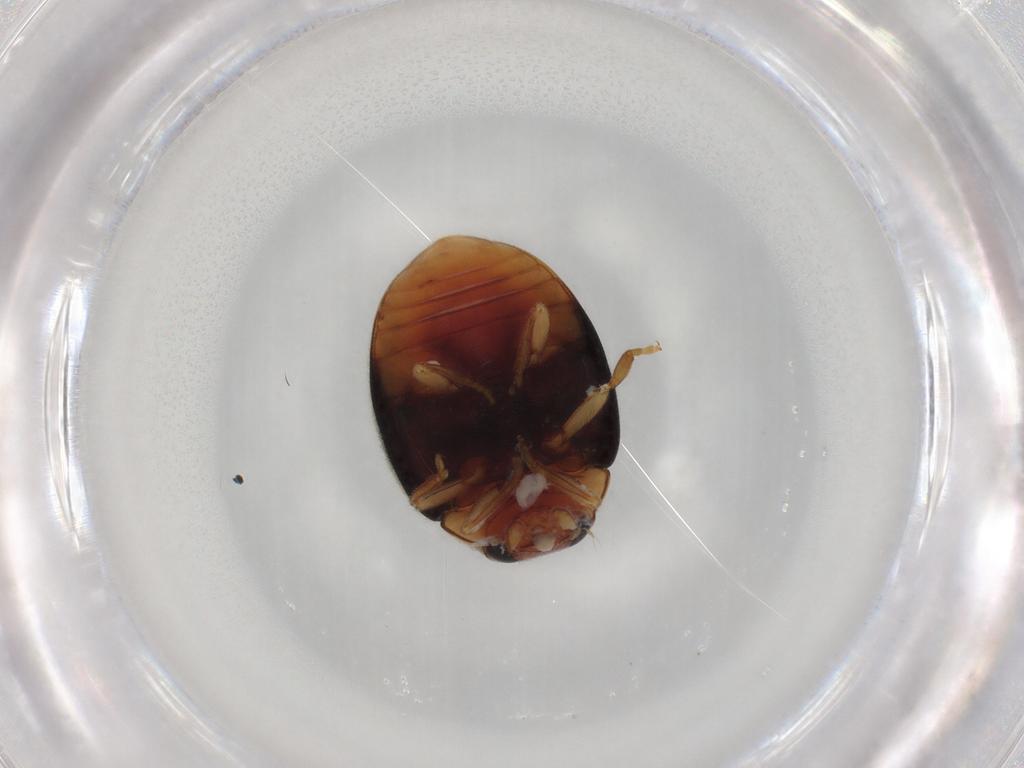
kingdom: Animalia
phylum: Arthropoda
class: Insecta
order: Coleoptera
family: Coccinellidae
